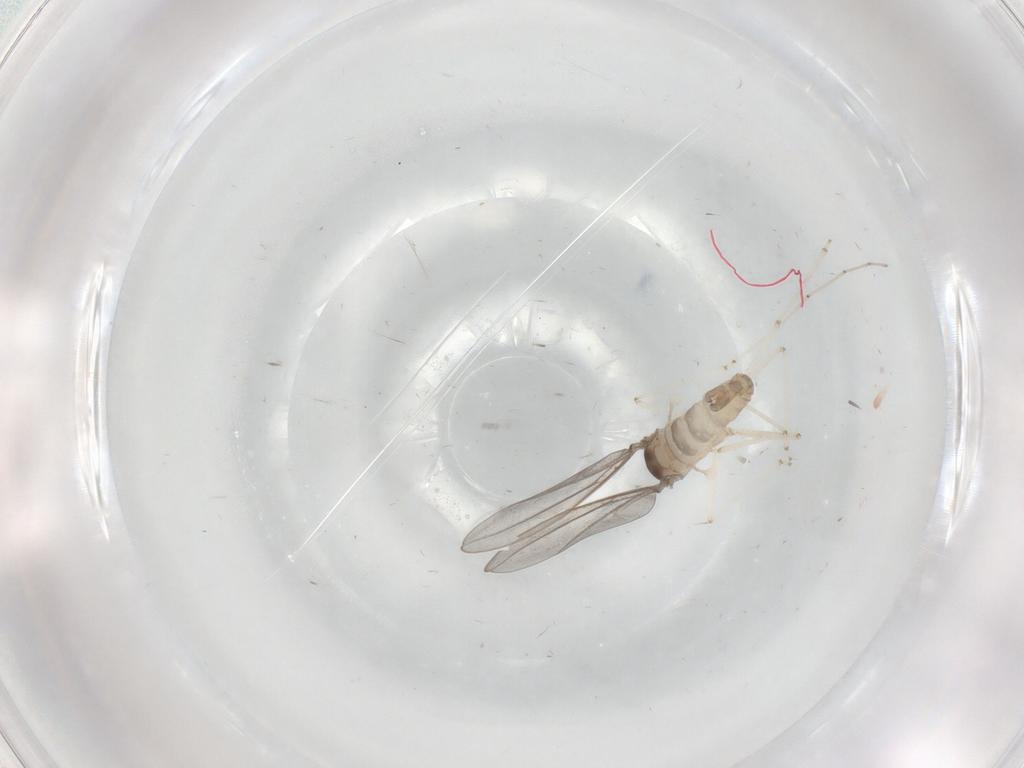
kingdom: Animalia
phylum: Arthropoda
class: Insecta
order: Diptera
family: Cecidomyiidae
